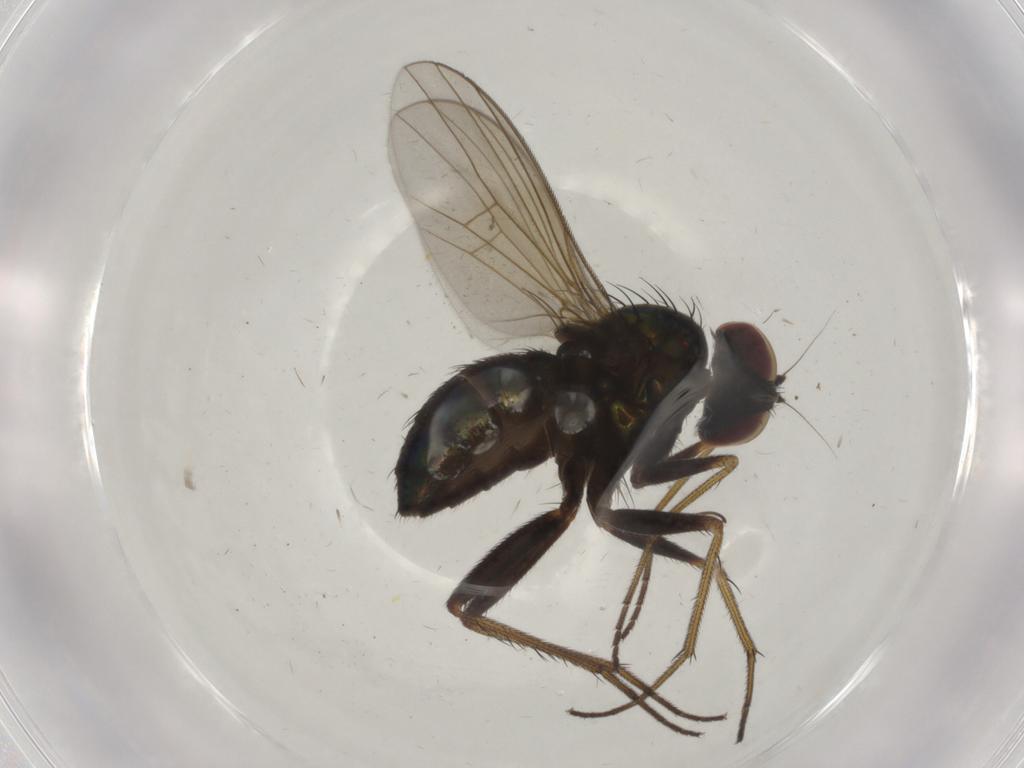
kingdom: Animalia
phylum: Arthropoda
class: Insecta
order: Diptera
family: Dolichopodidae
